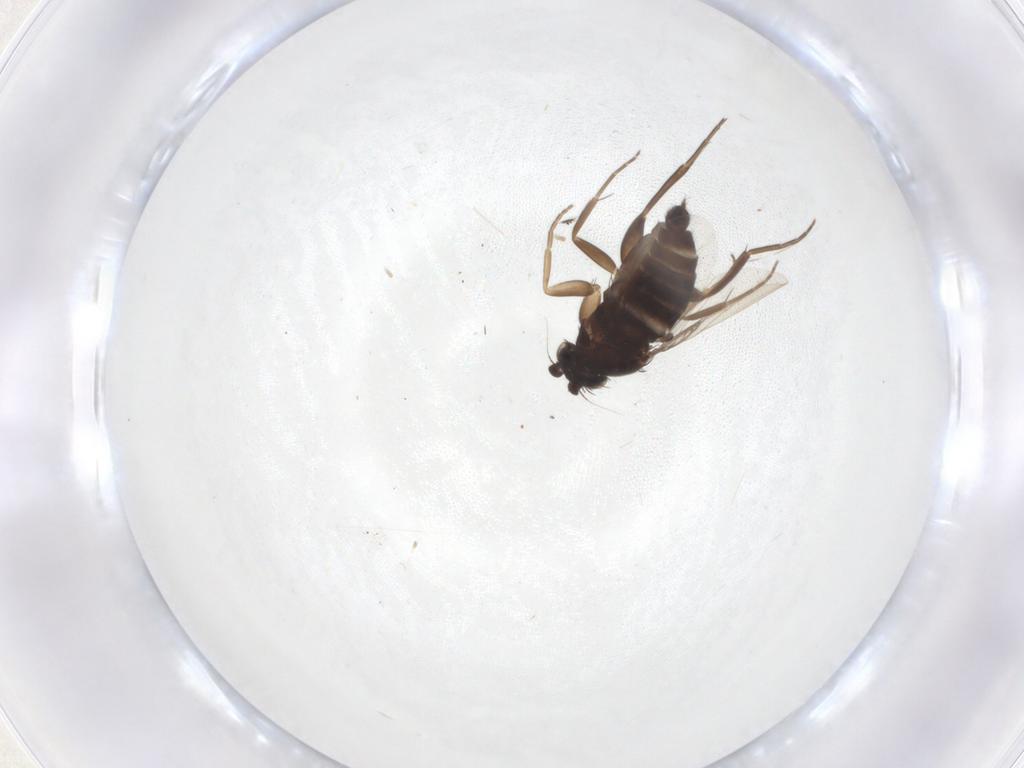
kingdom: Animalia
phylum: Arthropoda
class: Insecta
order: Diptera
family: Phoridae
